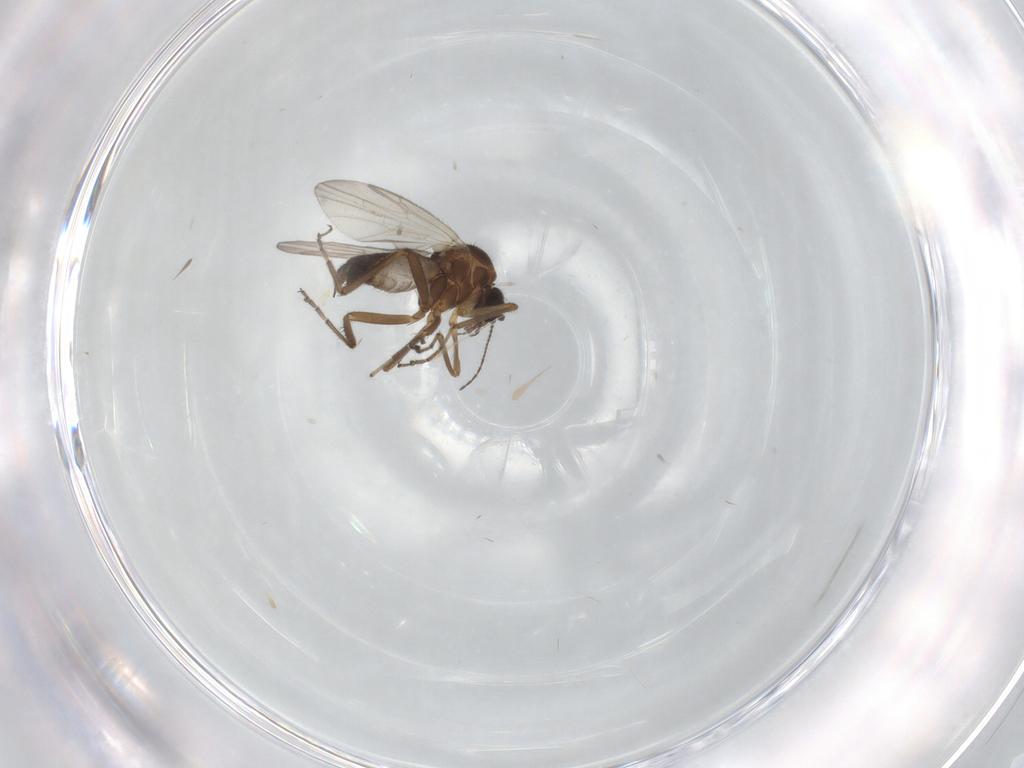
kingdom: Animalia
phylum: Arthropoda
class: Insecta
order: Diptera
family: Ceratopogonidae
